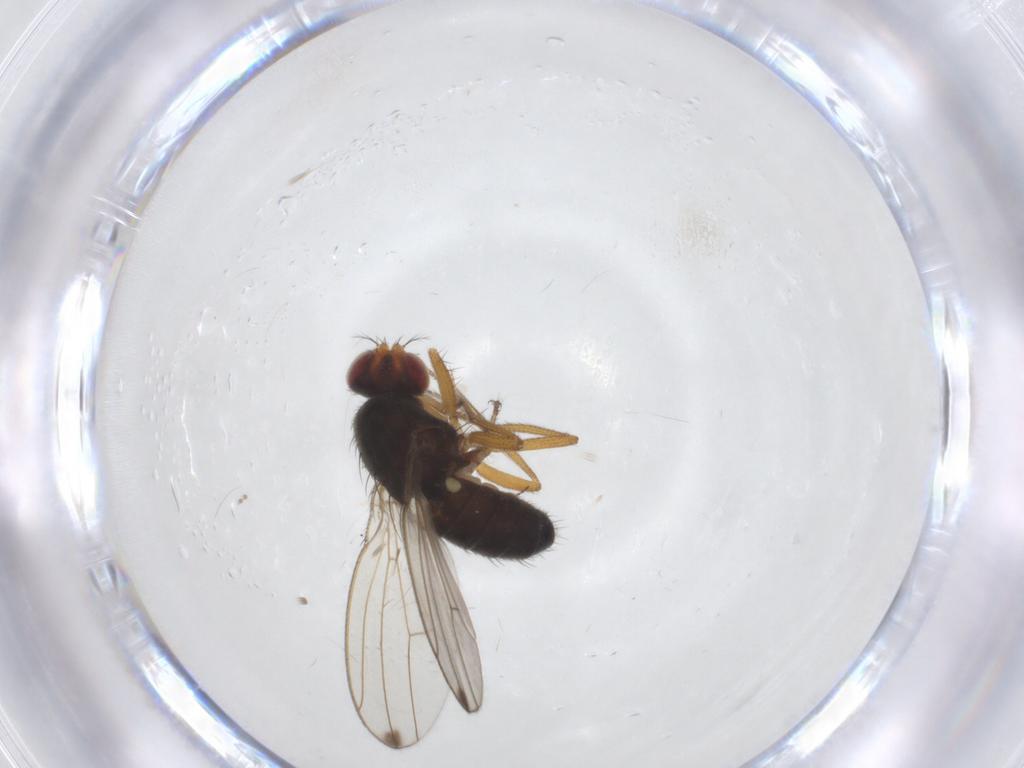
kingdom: Animalia
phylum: Arthropoda
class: Insecta
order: Diptera
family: Drosophilidae
